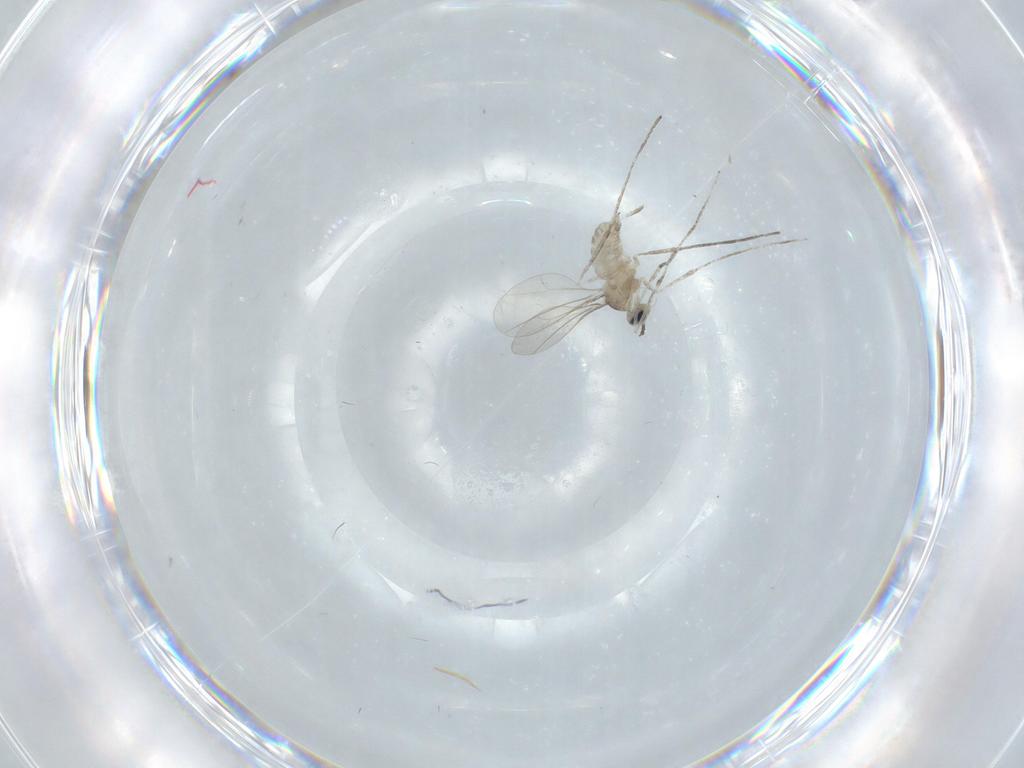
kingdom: Animalia
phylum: Arthropoda
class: Insecta
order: Diptera
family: Cecidomyiidae
